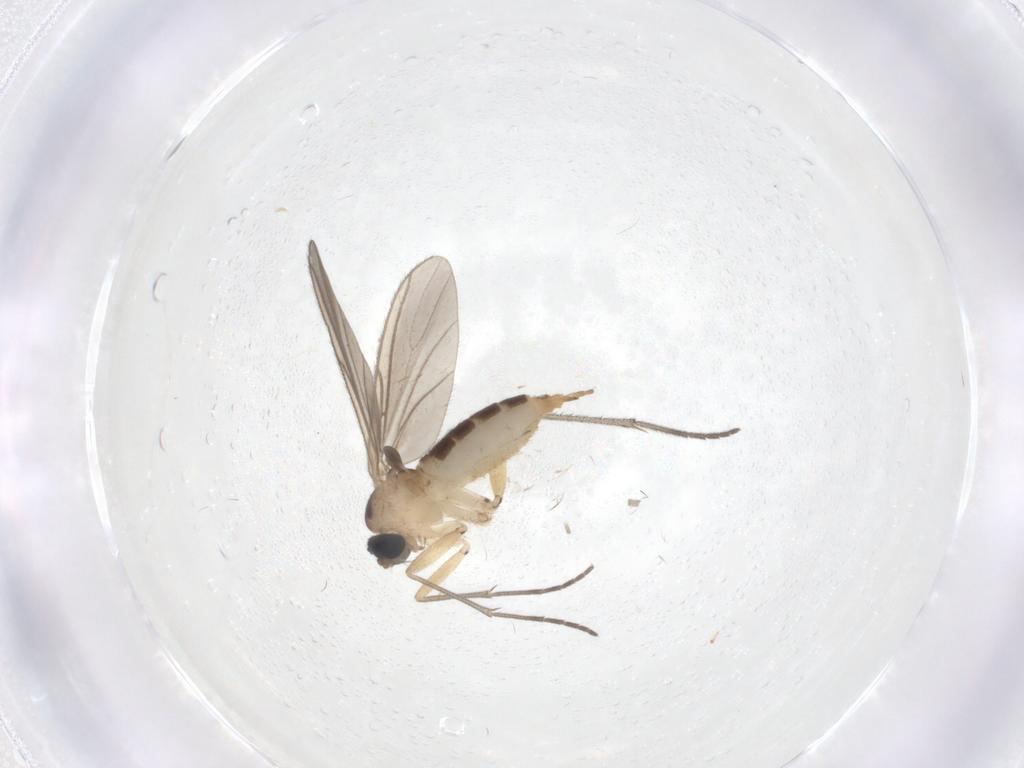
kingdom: Animalia
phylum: Arthropoda
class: Insecta
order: Diptera
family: Sciaridae
